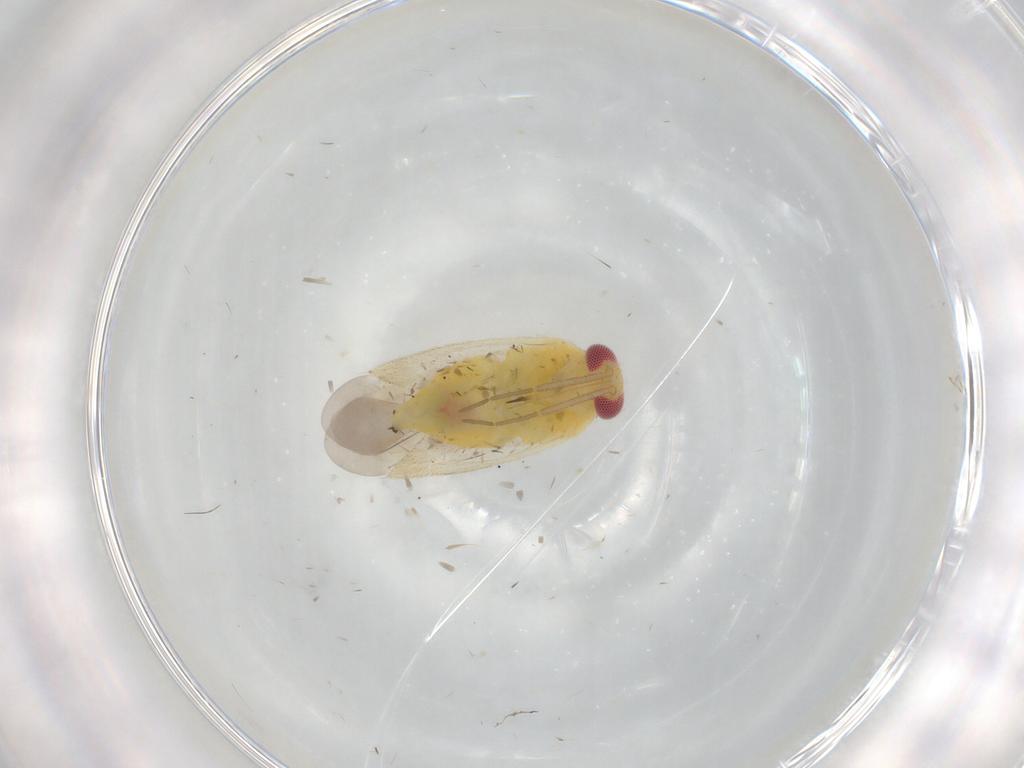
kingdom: Animalia
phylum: Arthropoda
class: Insecta
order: Hemiptera
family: Miridae
